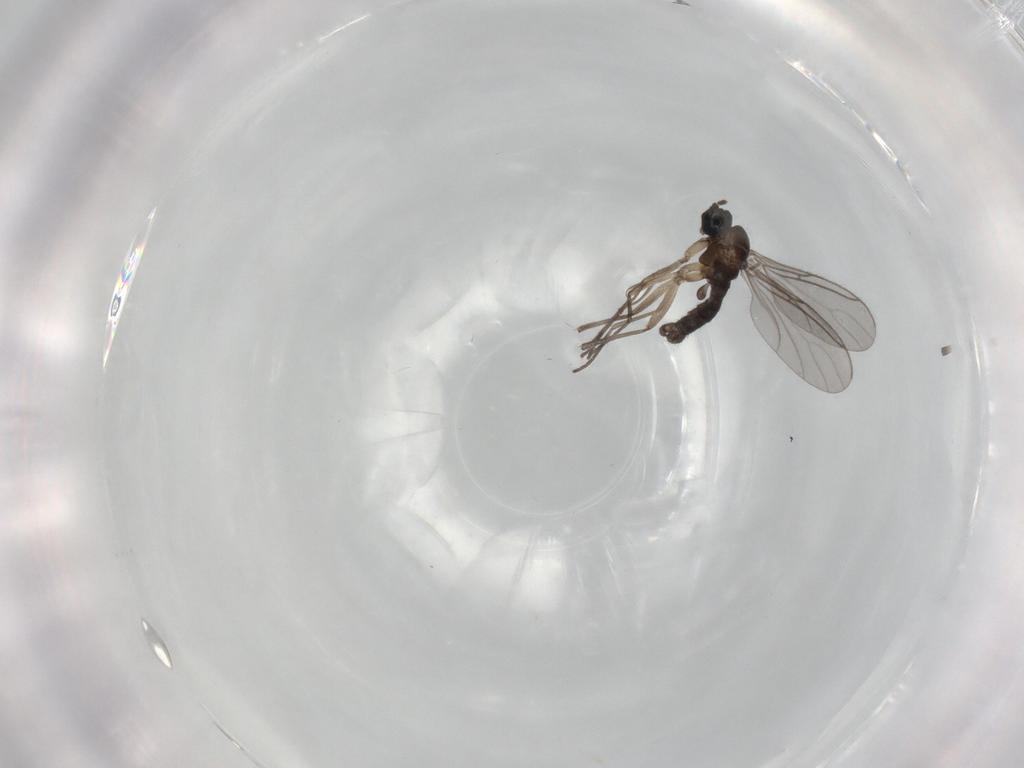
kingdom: Animalia
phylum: Arthropoda
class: Insecta
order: Diptera
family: Sciaridae
